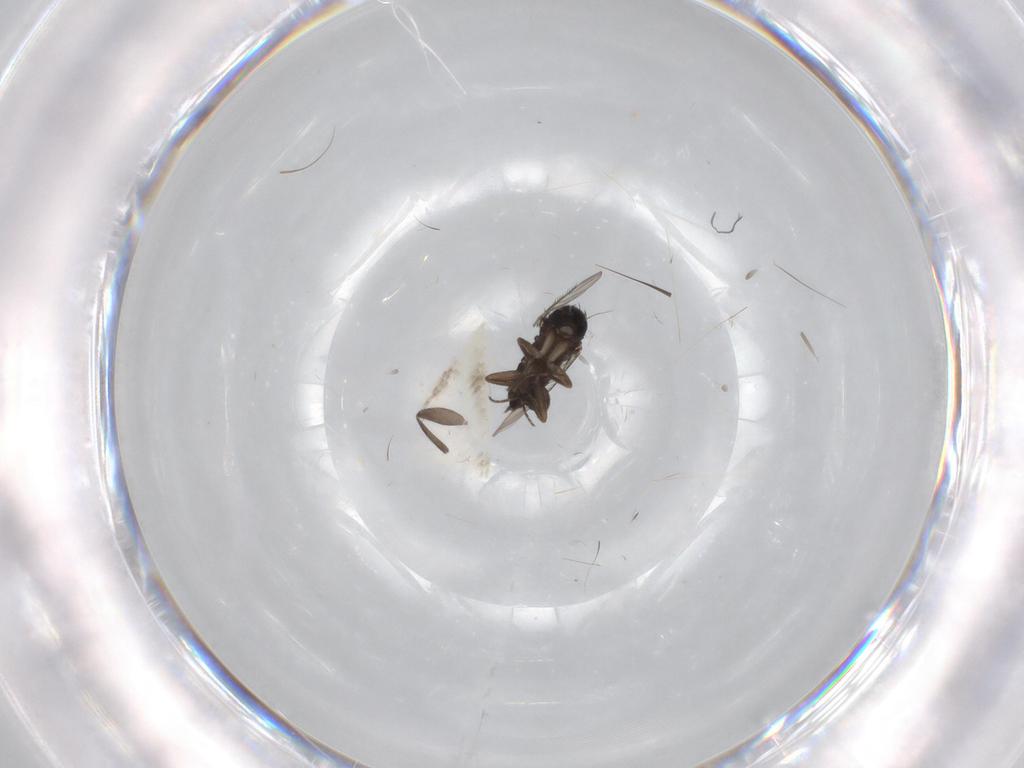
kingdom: Animalia
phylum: Arthropoda
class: Insecta
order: Diptera
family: Phoridae
